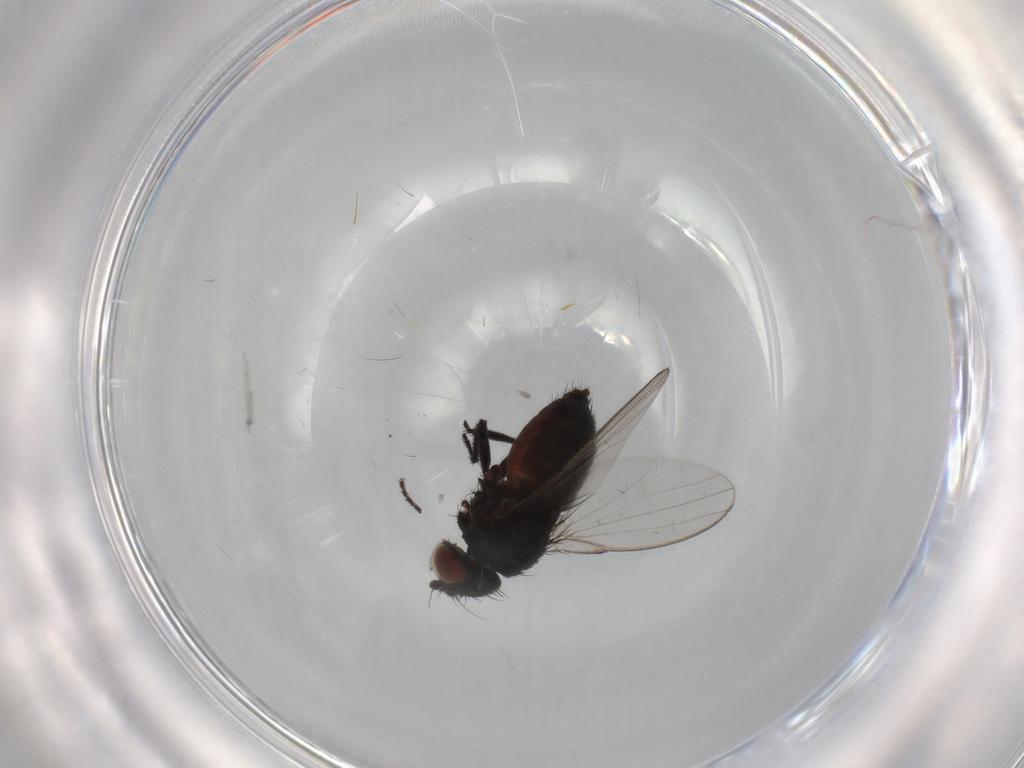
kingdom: Animalia
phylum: Arthropoda
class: Insecta
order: Diptera
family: Milichiidae
